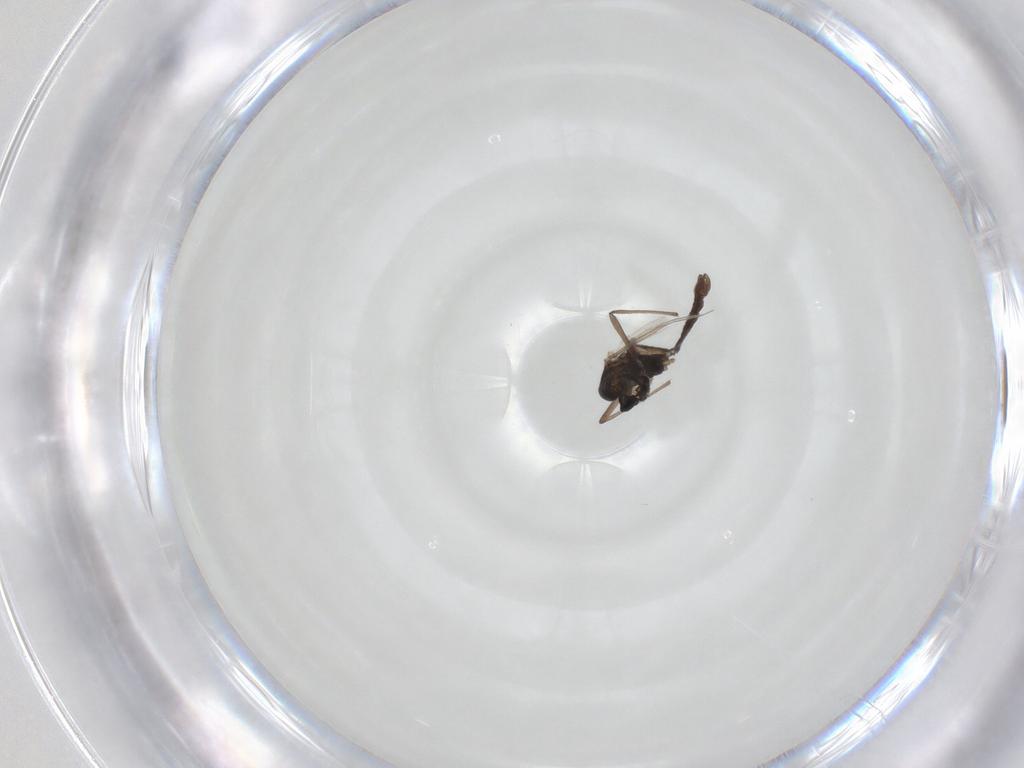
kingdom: Animalia
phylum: Arthropoda
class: Insecta
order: Diptera
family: Chironomidae
